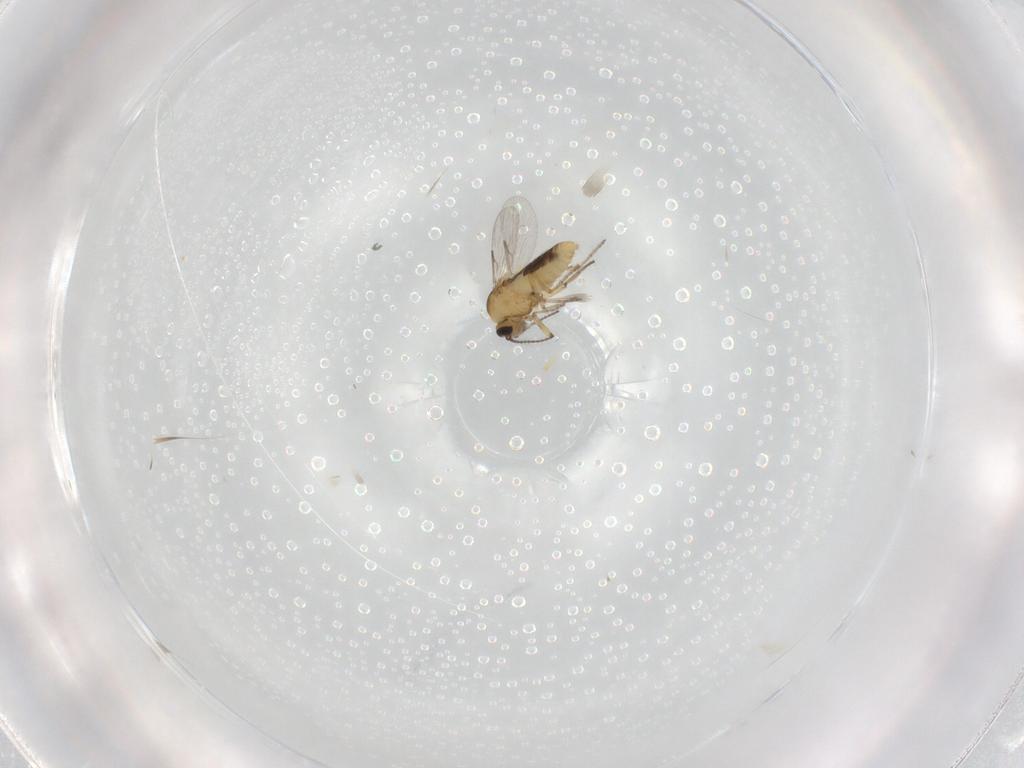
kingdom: Animalia
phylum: Arthropoda
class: Insecta
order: Diptera
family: Ceratopogonidae
